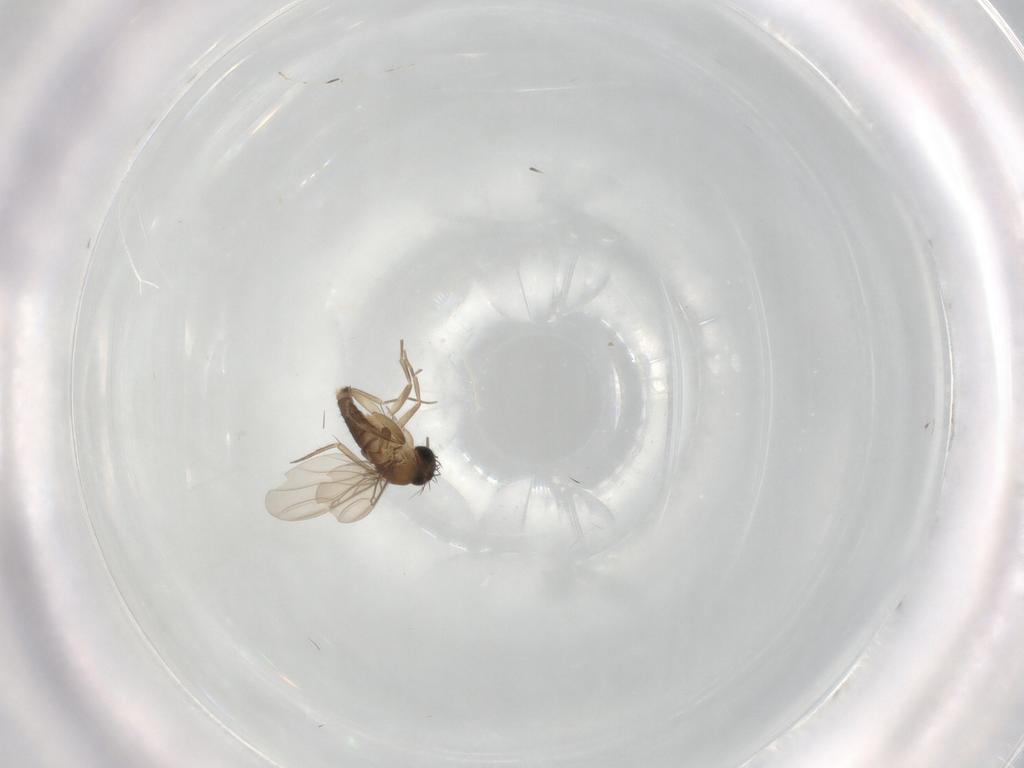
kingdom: Animalia
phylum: Arthropoda
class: Insecta
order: Diptera
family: Phoridae
